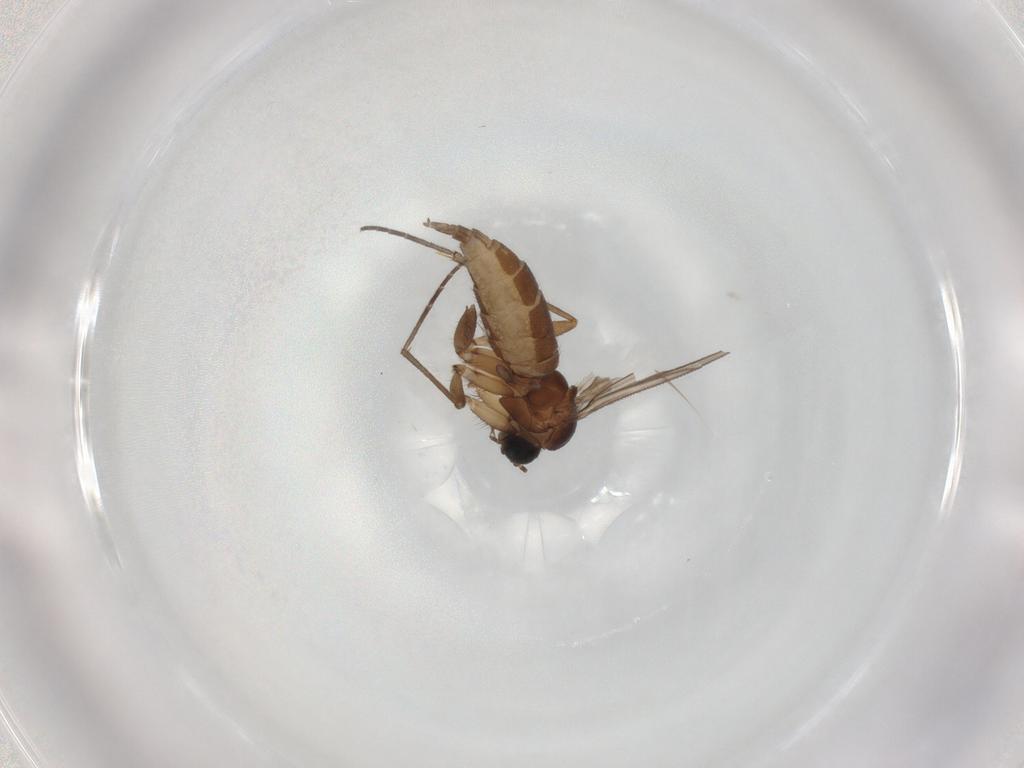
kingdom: Animalia
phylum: Arthropoda
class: Insecta
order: Diptera
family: Sciaridae
